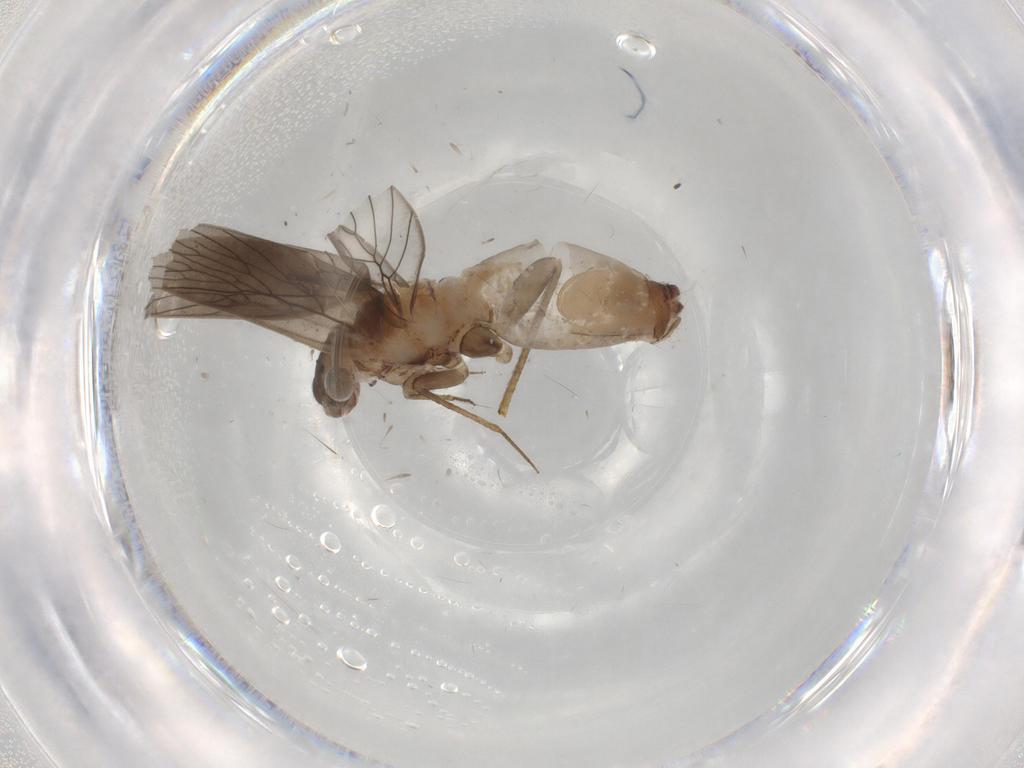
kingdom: Animalia
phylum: Arthropoda
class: Insecta
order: Psocodea
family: Lepidopsocidae
